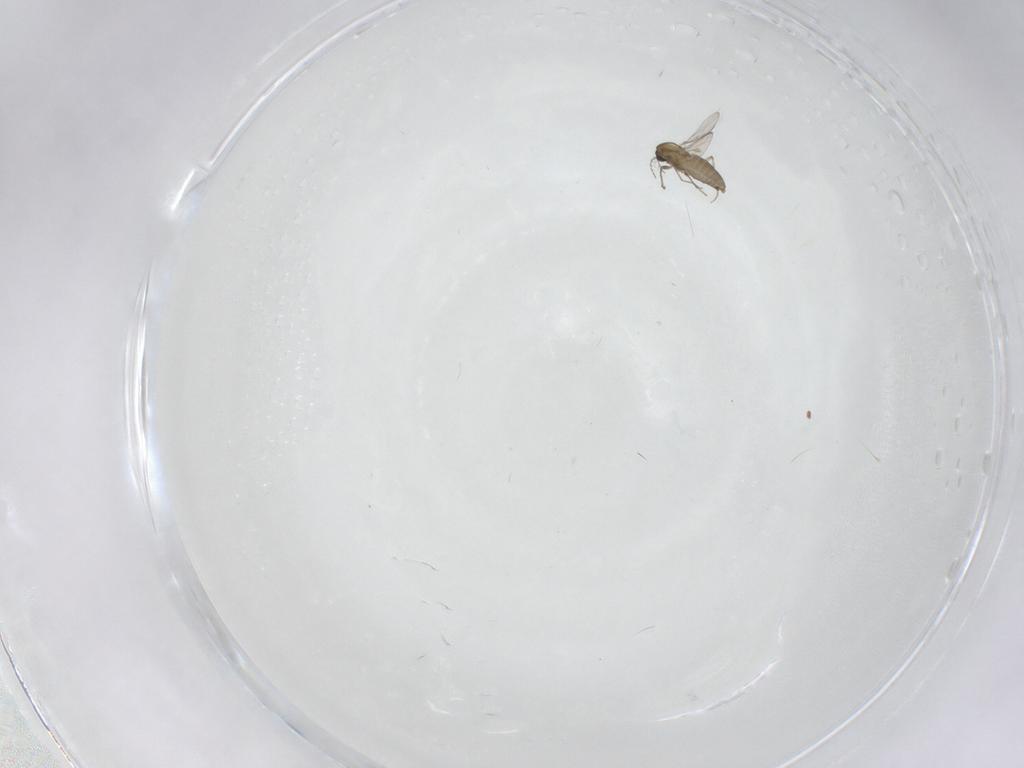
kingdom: Animalia
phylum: Arthropoda
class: Insecta
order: Diptera
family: Chironomidae
